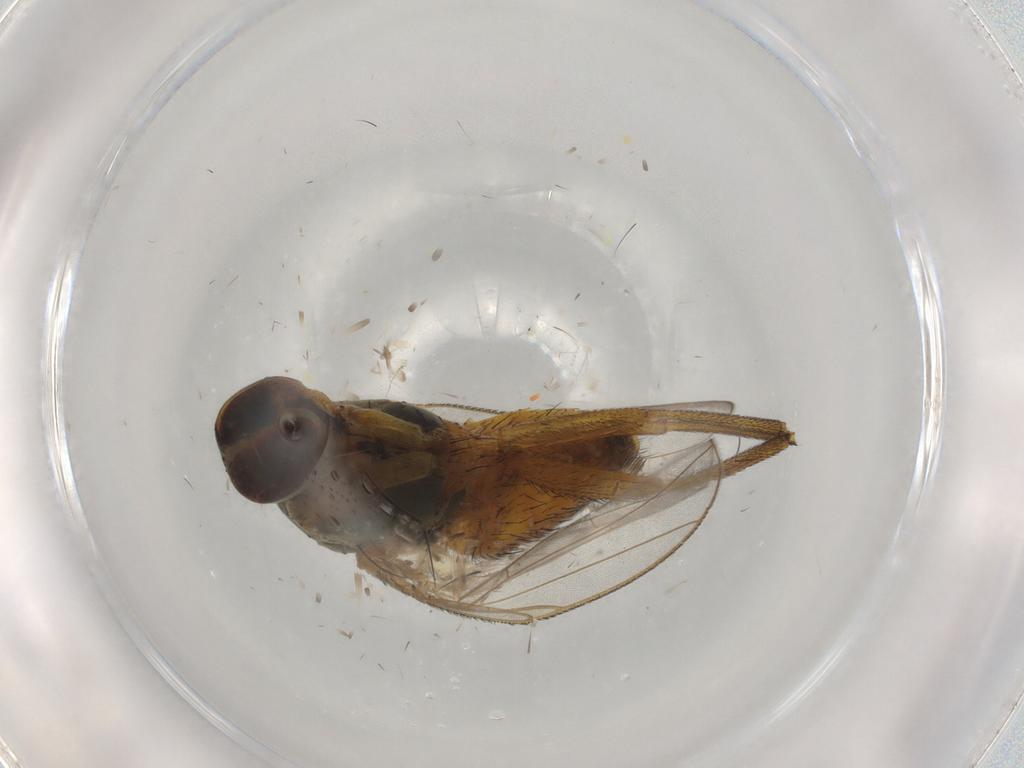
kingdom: Animalia
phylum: Arthropoda
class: Insecta
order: Diptera
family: Muscidae
